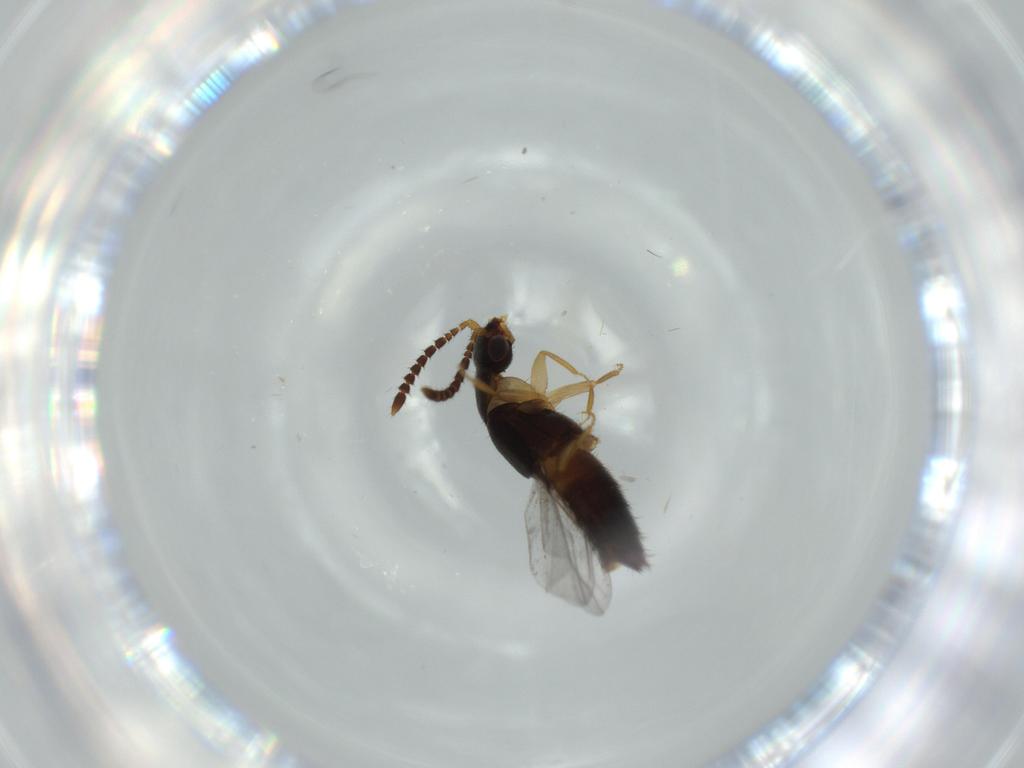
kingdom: Animalia
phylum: Arthropoda
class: Insecta
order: Coleoptera
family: Staphylinidae
